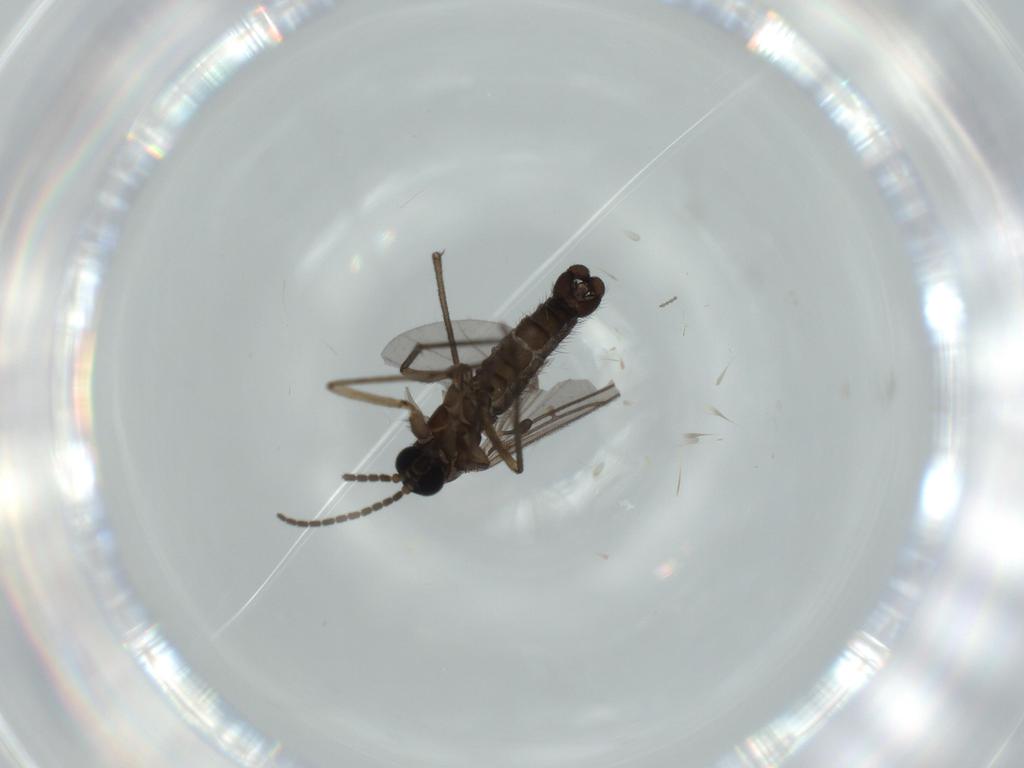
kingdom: Animalia
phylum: Arthropoda
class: Insecta
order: Diptera
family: Sciaridae
